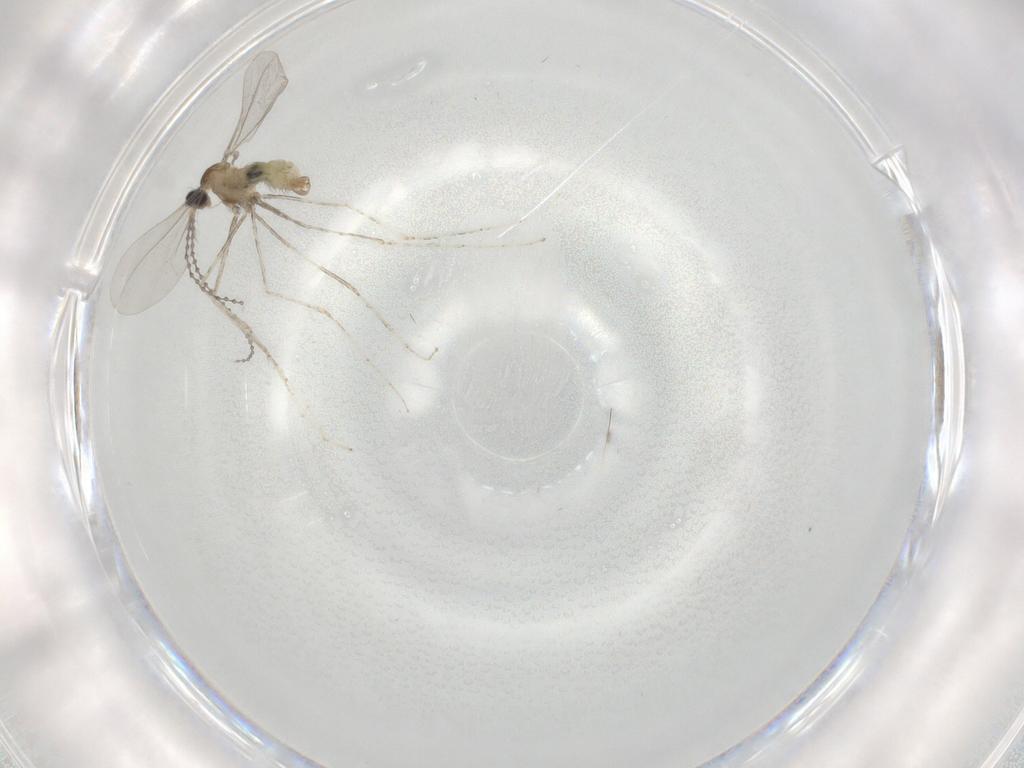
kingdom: Animalia
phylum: Arthropoda
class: Insecta
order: Diptera
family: Cecidomyiidae
